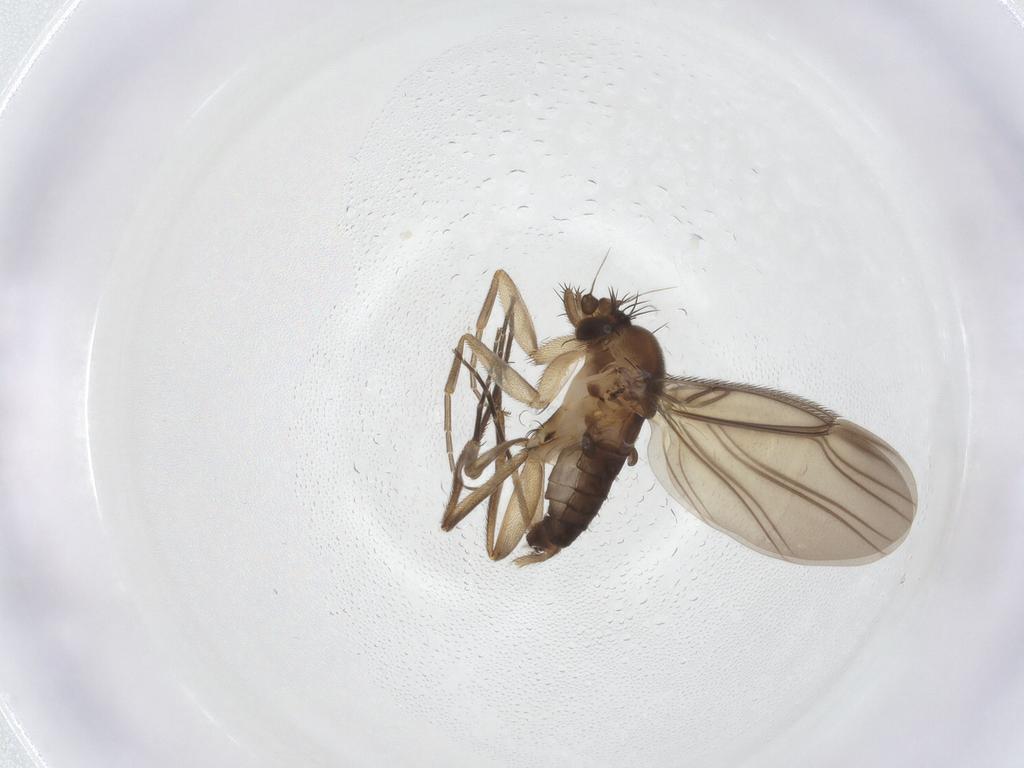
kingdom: Animalia
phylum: Arthropoda
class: Insecta
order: Diptera
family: Phoridae
